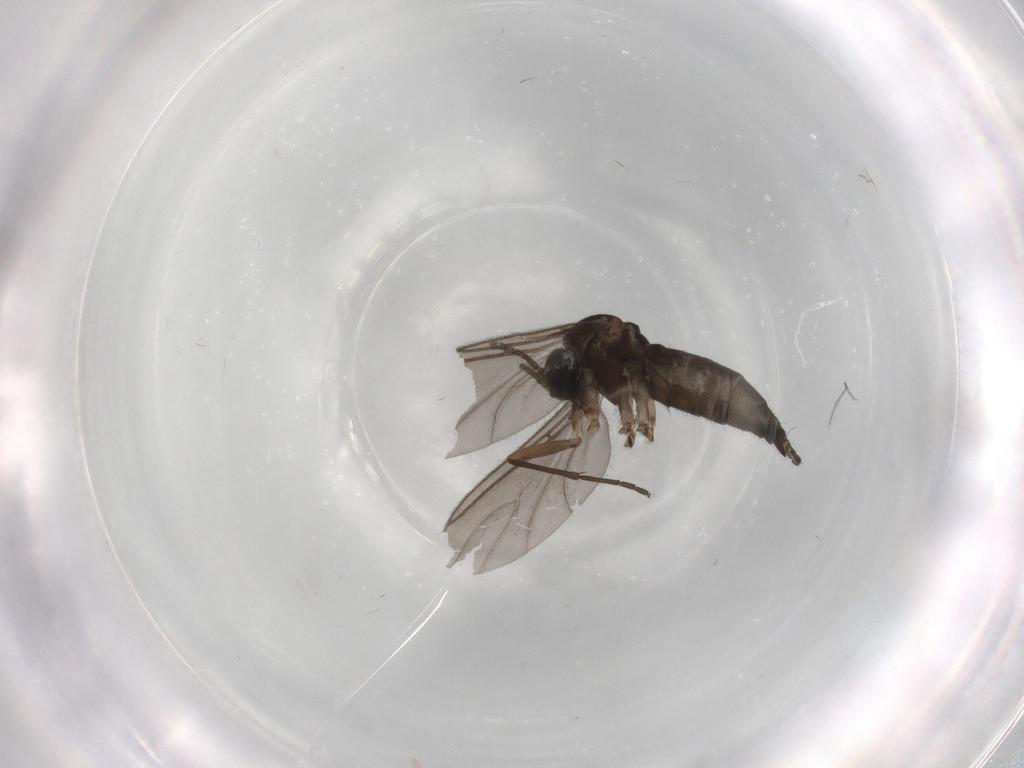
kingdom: Animalia
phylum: Arthropoda
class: Insecta
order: Diptera
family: Sciaridae
